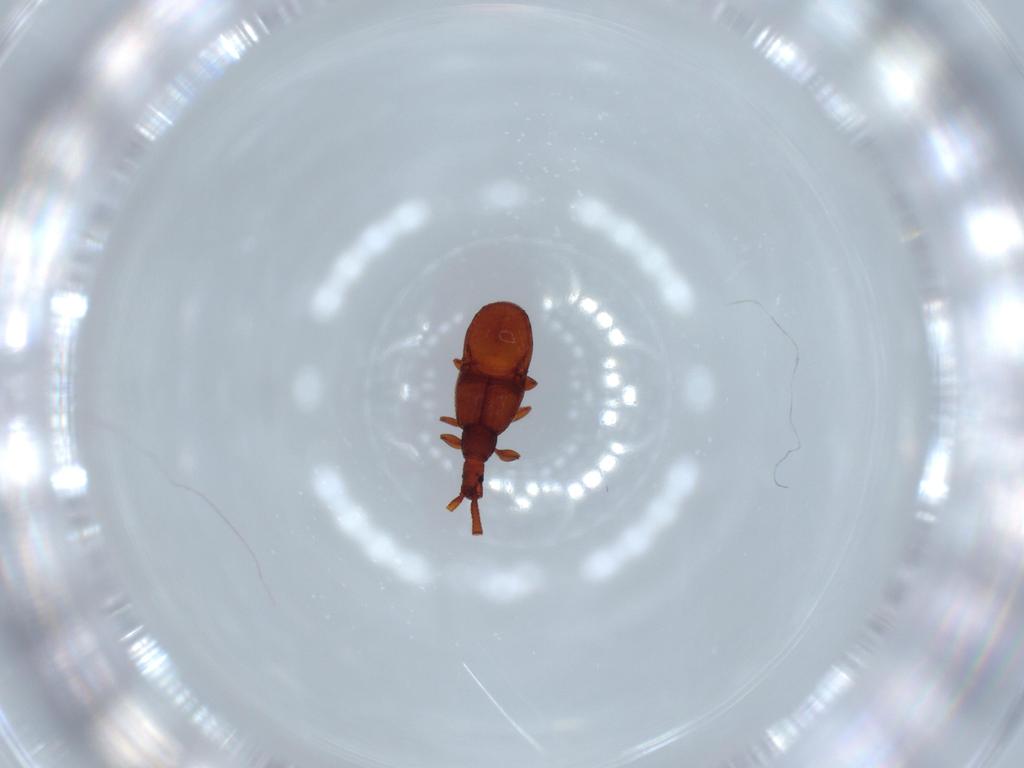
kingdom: Animalia
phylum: Arthropoda
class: Insecta
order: Coleoptera
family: Staphylinidae
